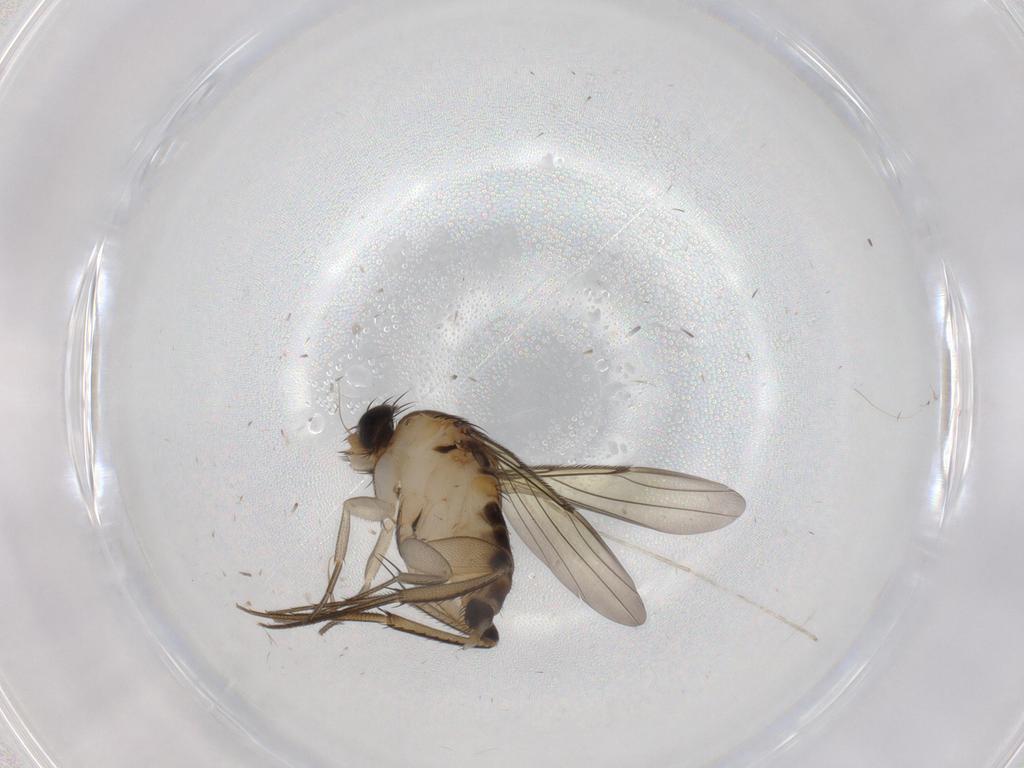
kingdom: Animalia
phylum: Arthropoda
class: Insecta
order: Diptera
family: Phoridae
